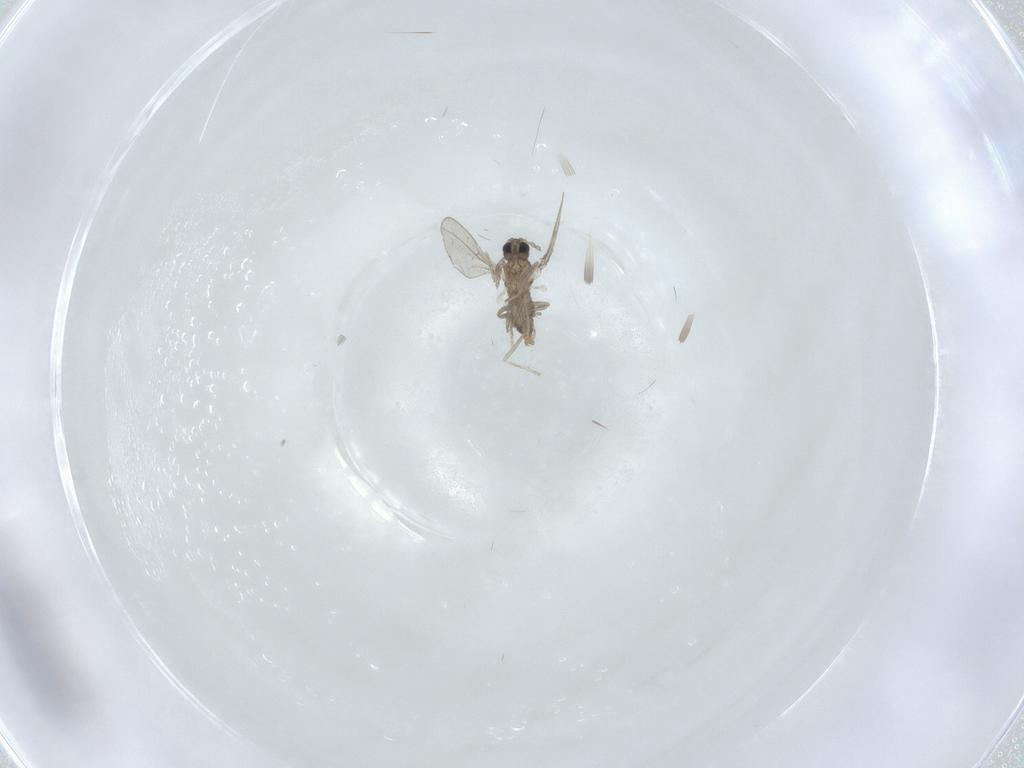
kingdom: Animalia
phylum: Arthropoda
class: Insecta
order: Diptera
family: Cecidomyiidae
